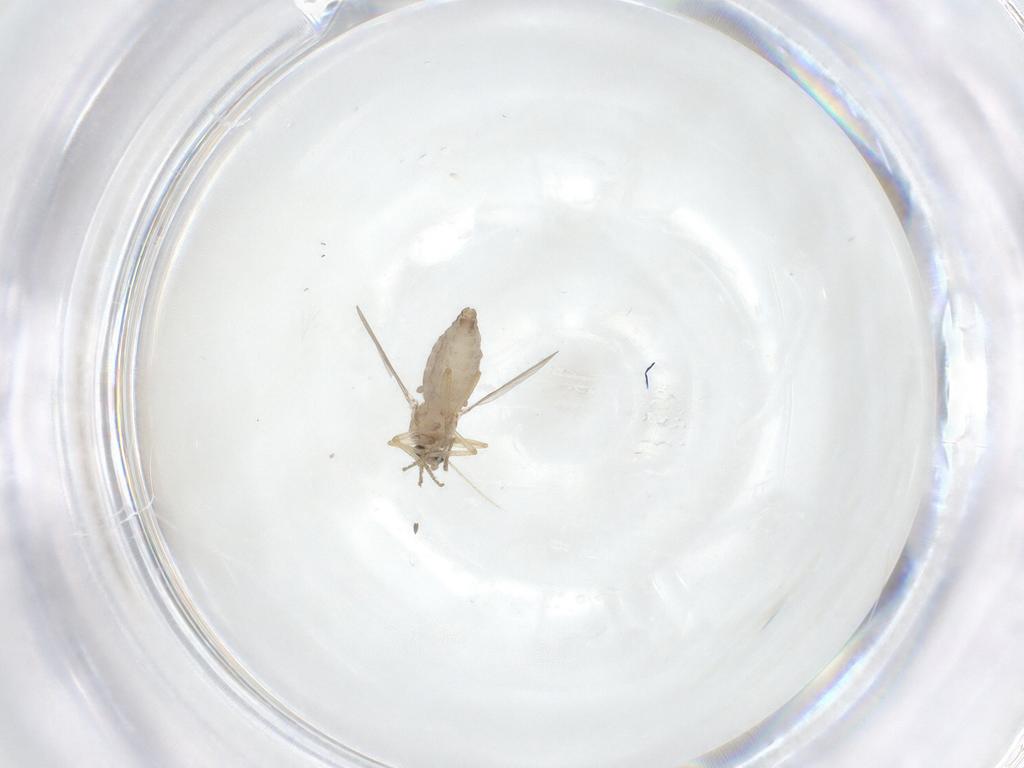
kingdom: Animalia
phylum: Arthropoda
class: Insecta
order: Diptera
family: Ceratopogonidae
